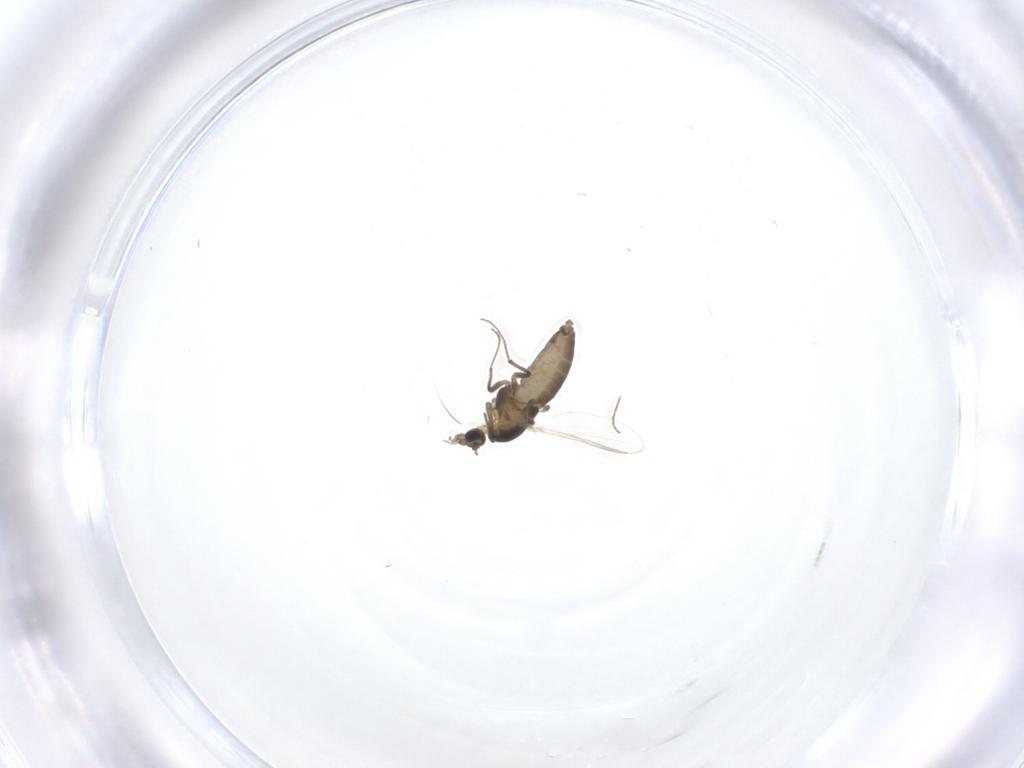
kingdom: Animalia
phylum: Arthropoda
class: Insecta
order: Diptera
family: Chironomidae
